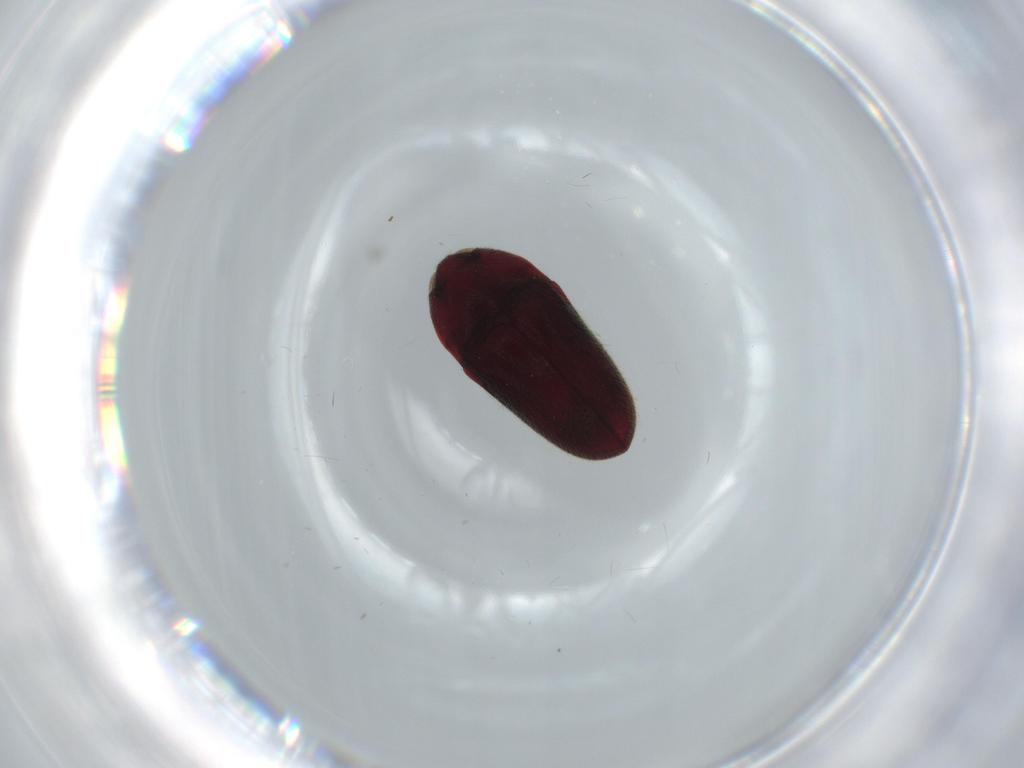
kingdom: Animalia
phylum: Arthropoda
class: Insecta
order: Coleoptera
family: Throscidae
